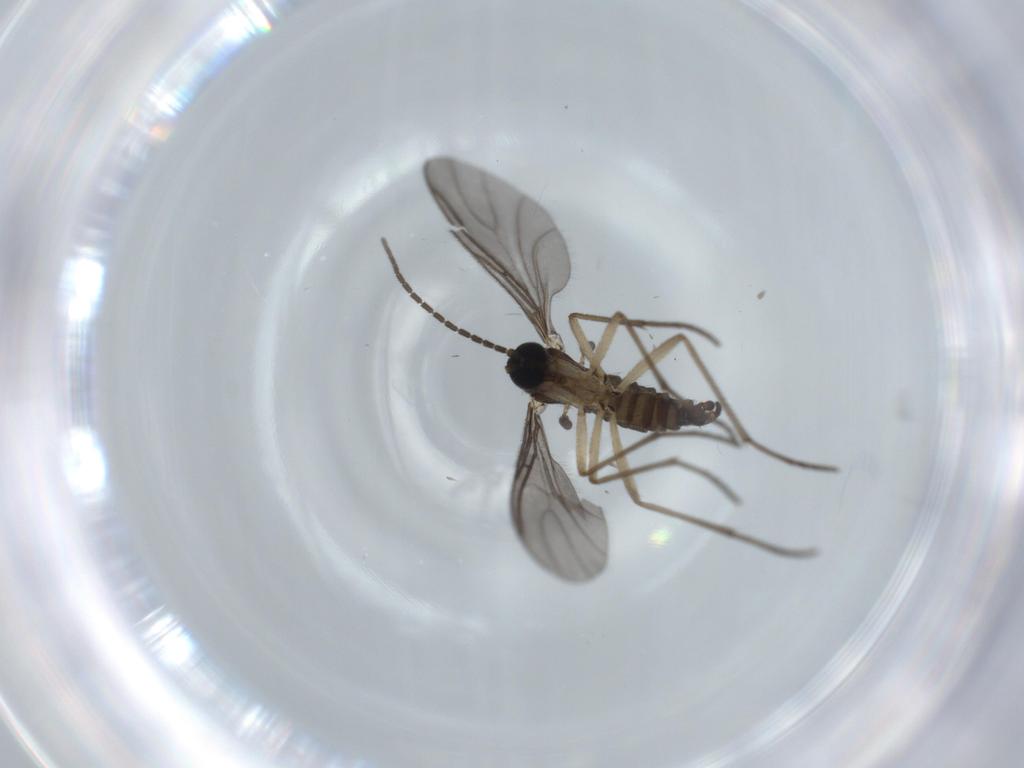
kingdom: Animalia
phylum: Arthropoda
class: Insecta
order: Diptera
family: Sciaridae
